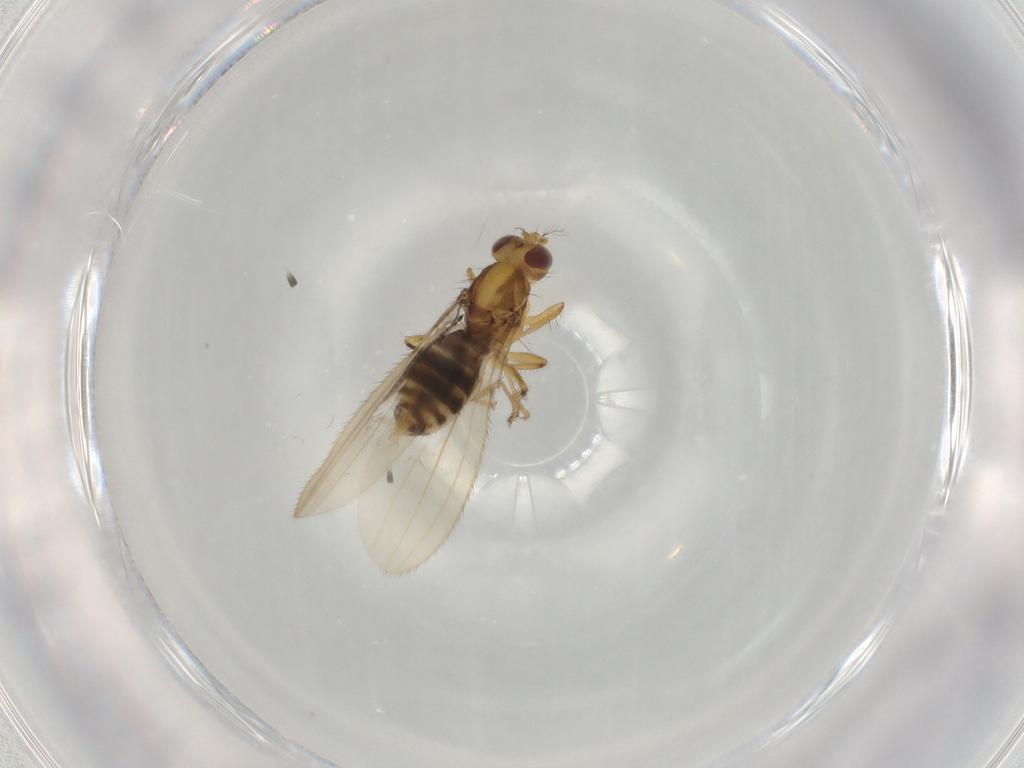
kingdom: Animalia
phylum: Arthropoda
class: Insecta
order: Diptera
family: Periscelididae
